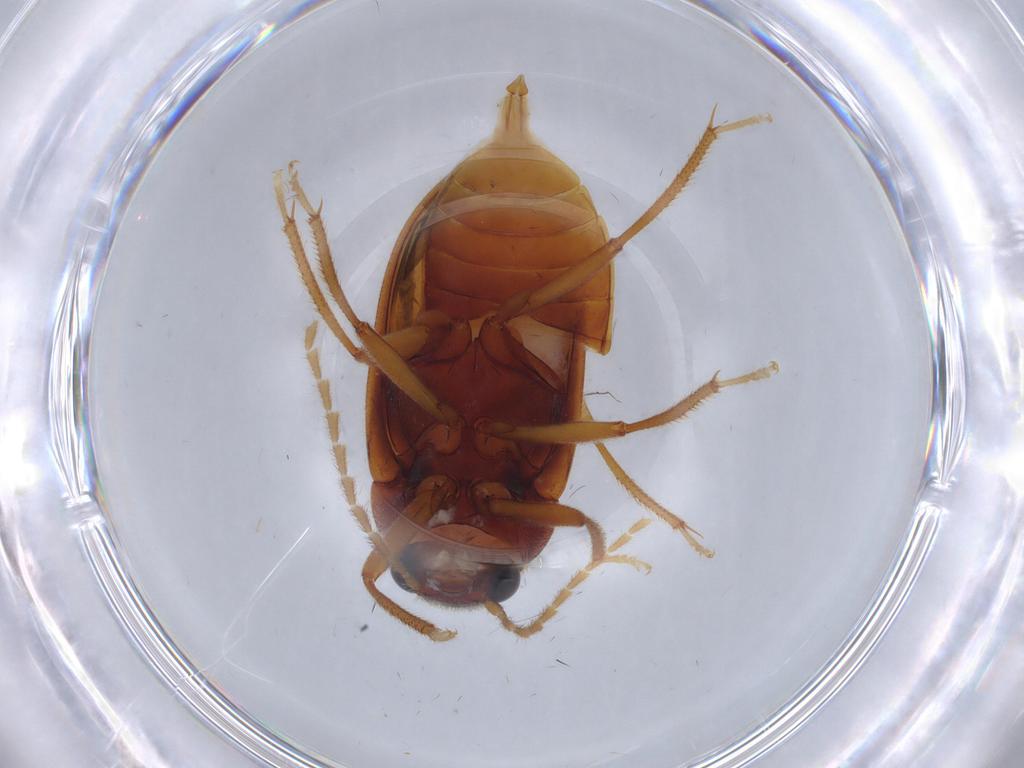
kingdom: Animalia
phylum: Arthropoda
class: Insecta
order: Coleoptera
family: Ptilodactylidae
